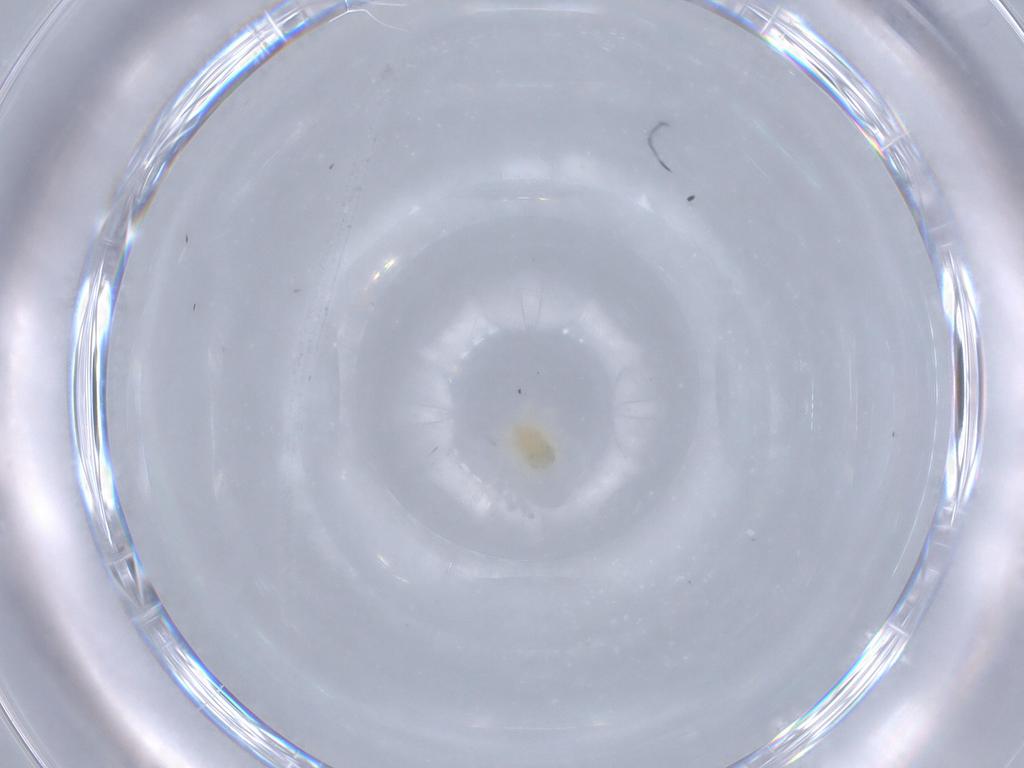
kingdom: Animalia
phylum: Arthropoda
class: Arachnida
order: Trombidiformes
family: Anystidae
